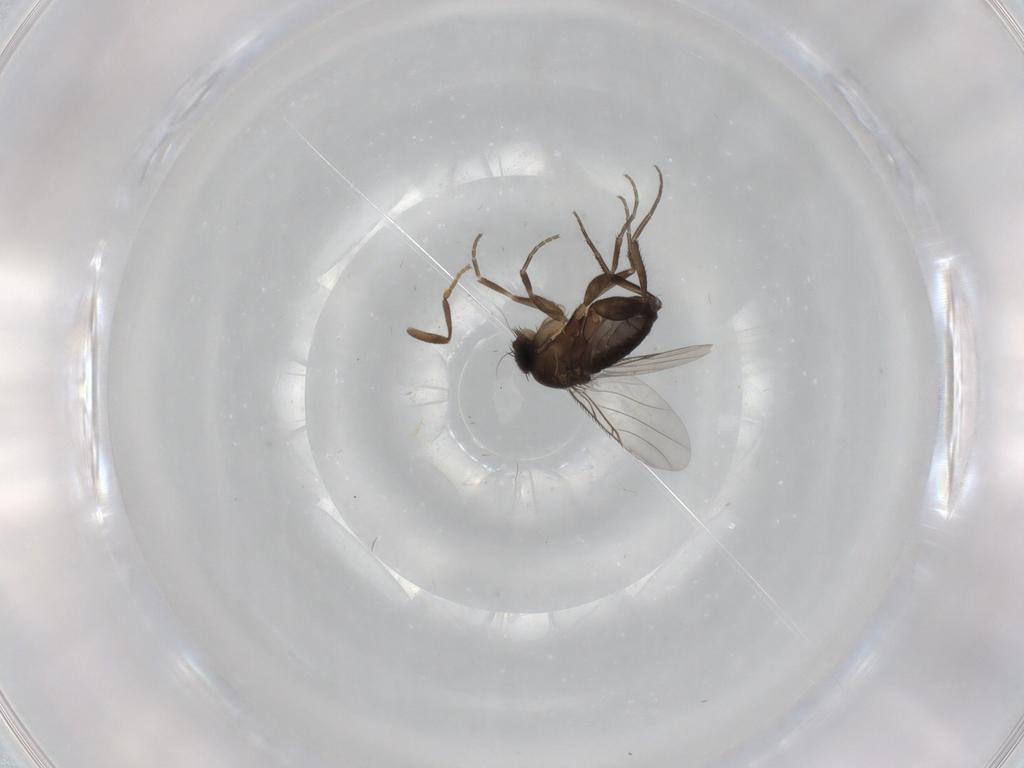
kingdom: Animalia
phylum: Arthropoda
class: Insecta
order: Diptera
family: Phoridae
